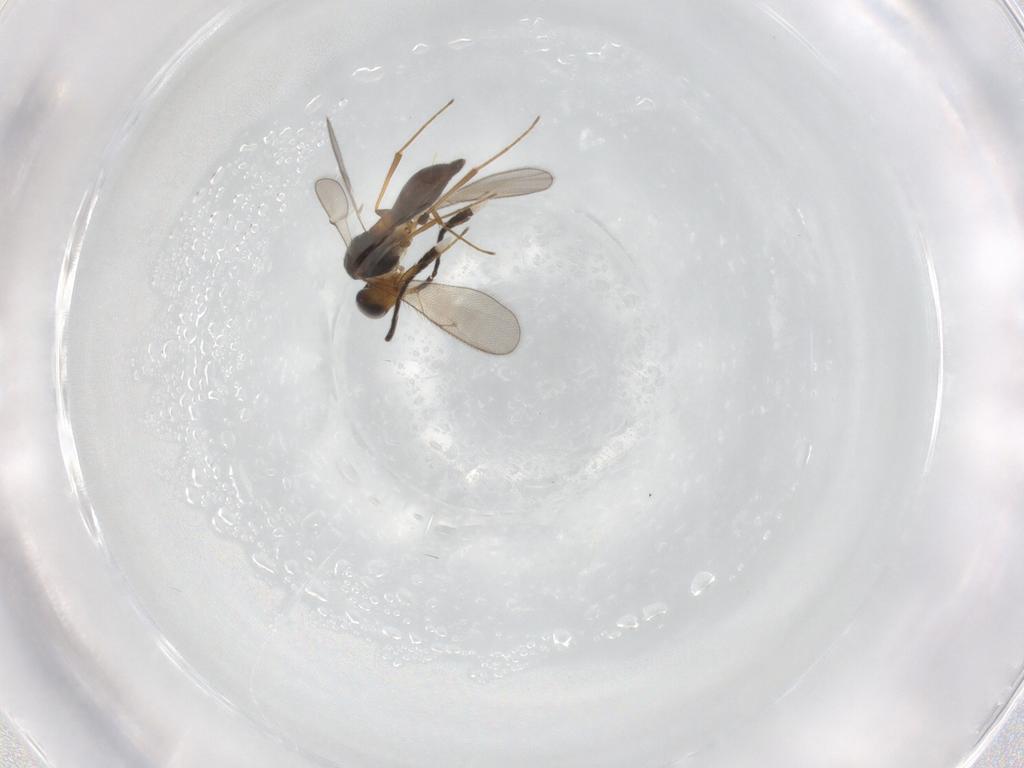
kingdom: Animalia
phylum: Arthropoda
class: Insecta
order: Hymenoptera
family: Scelionidae
